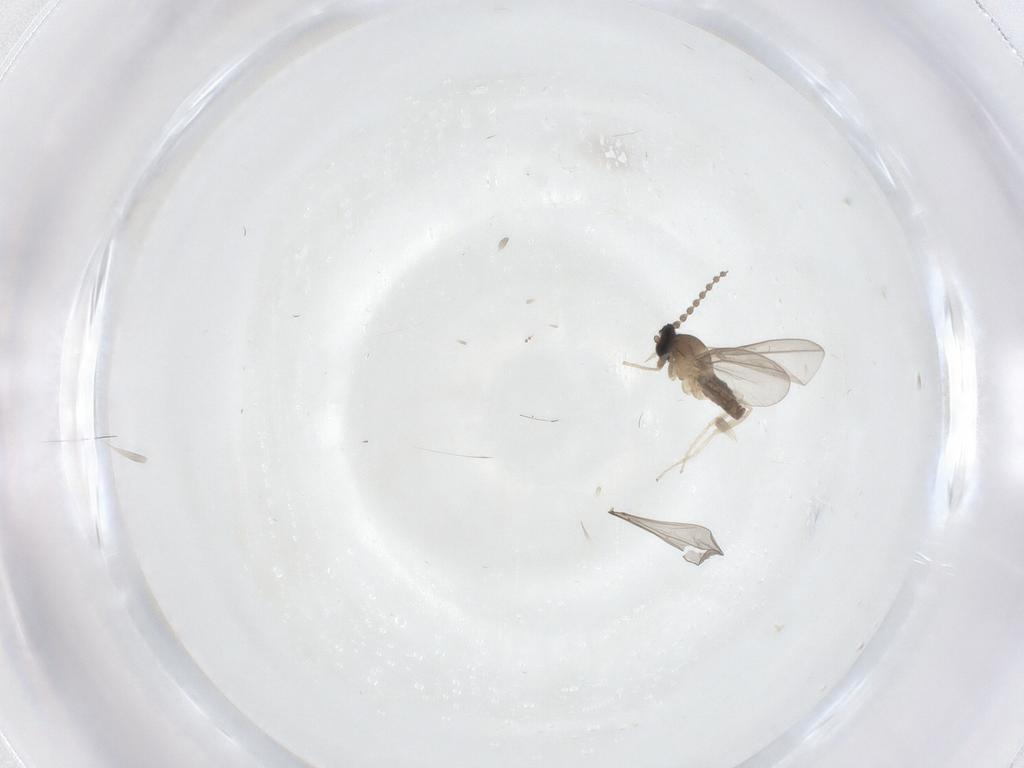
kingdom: Animalia
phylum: Arthropoda
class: Insecta
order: Diptera
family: Cecidomyiidae
